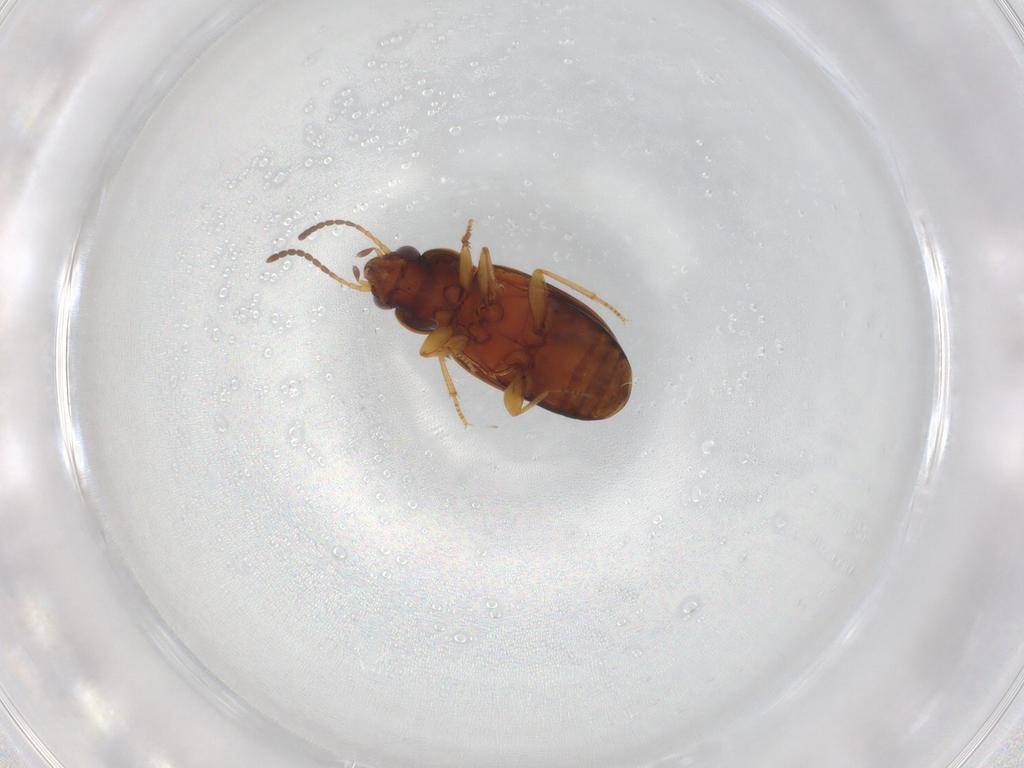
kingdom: Animalia
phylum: Arthropoda
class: Insecta
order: Coleoptera
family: Carabidae
